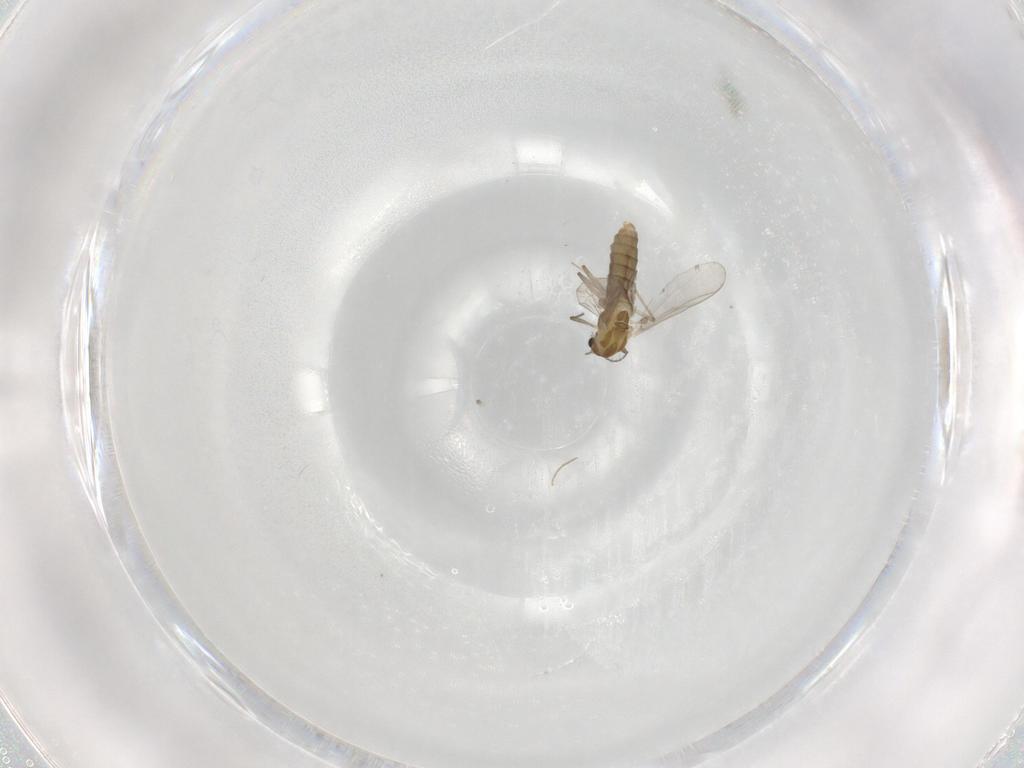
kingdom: Animalia
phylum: Arthropoda
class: Insecta
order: Diptera
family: Chironomidae
